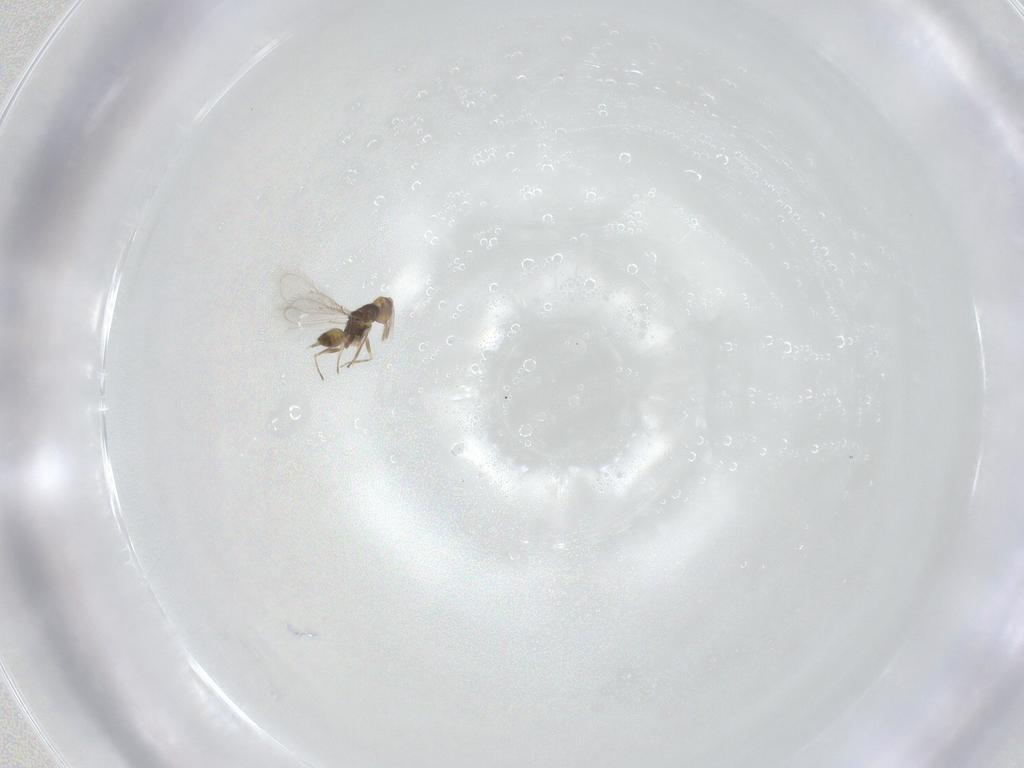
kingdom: Animalia
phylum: Arthropoda
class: Insecta
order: Hymenoptera
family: Eulophidae
